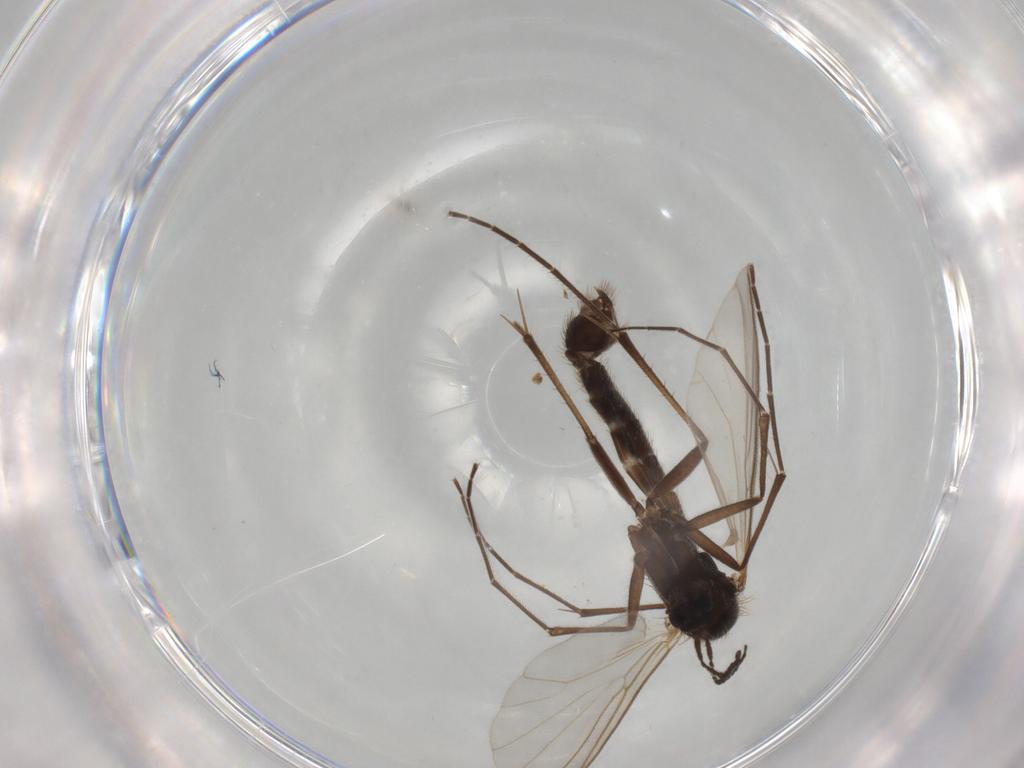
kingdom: Animalia
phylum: Arthropoda
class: Insecta
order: Diptera
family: Mycetophilidae
